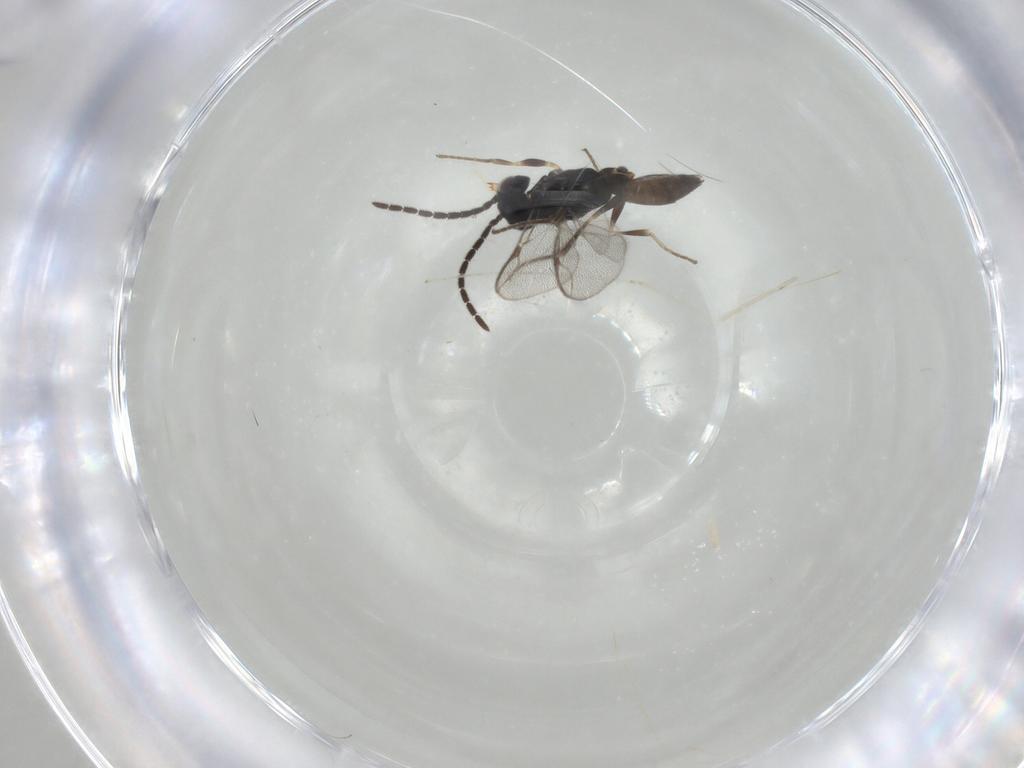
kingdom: Animalia
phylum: Arthropoda
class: Insecta
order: Hymenoptera
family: Dryinidae
